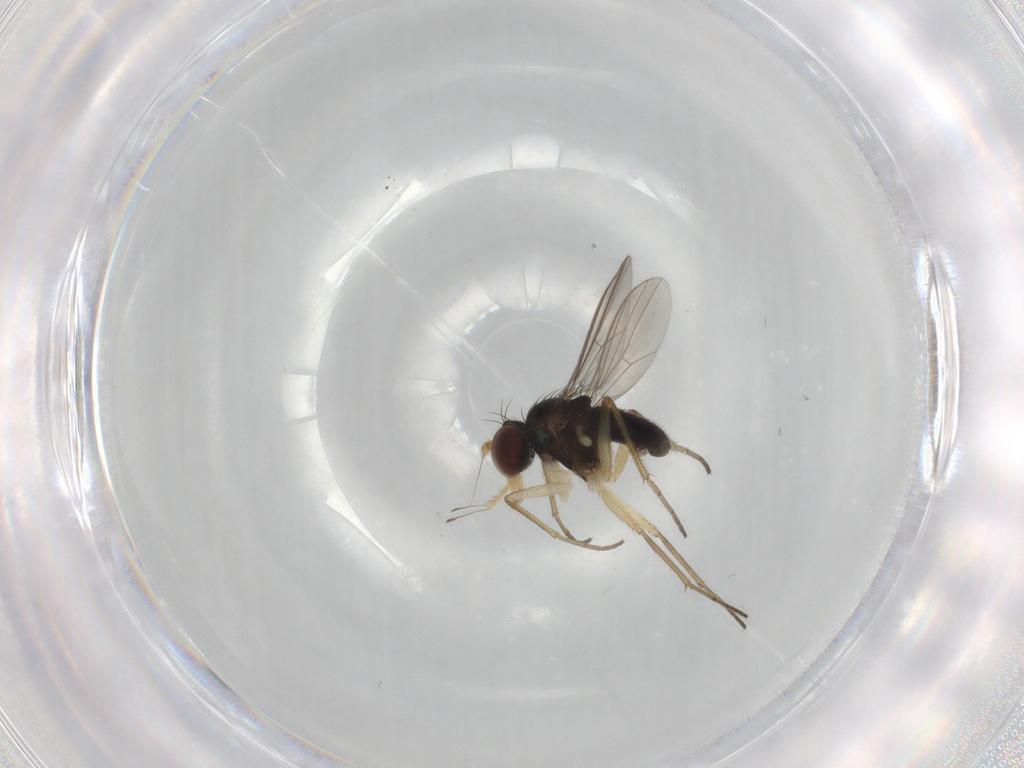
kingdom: Animalia
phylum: Arthropoda
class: Insecta
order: Diptera
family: Dolichopodidae
